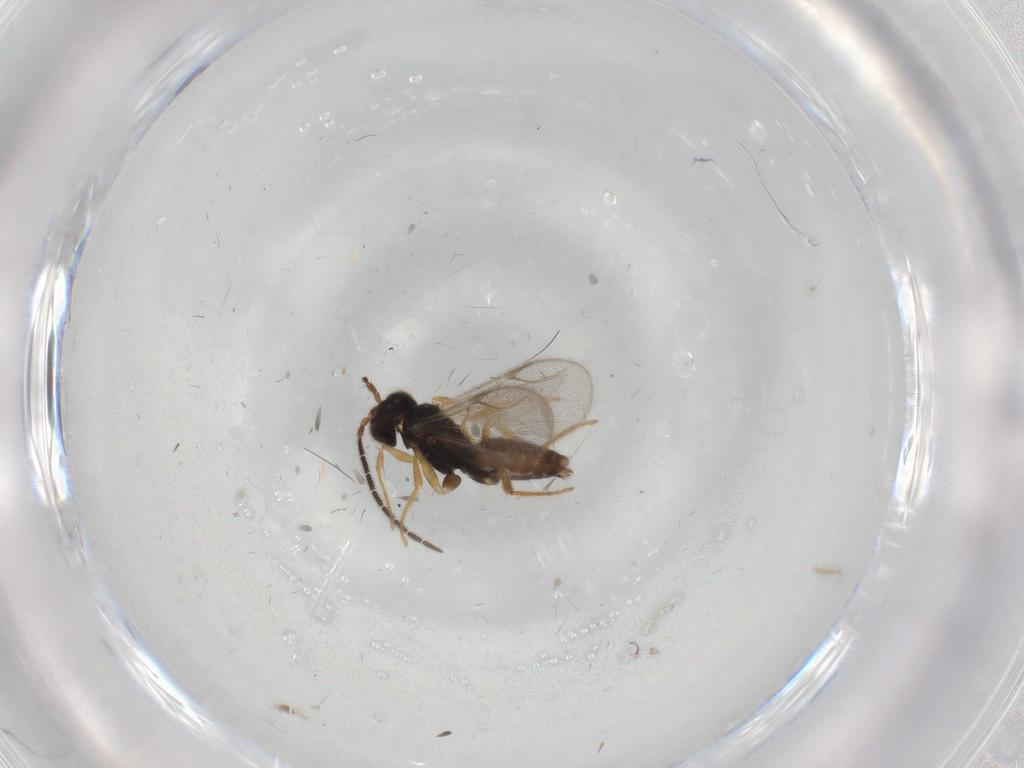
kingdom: Animalia
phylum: Arthropoda
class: Insecta
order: Hymenoptera
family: Dryinidae
